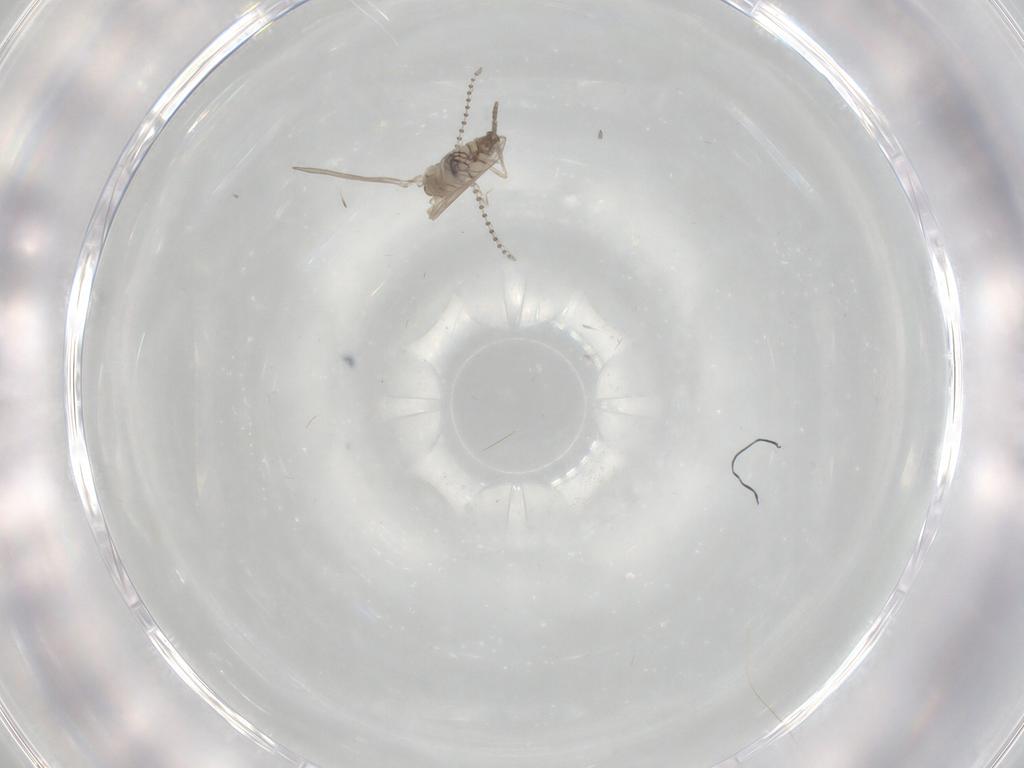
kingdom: Animalia
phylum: Arthropoda
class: Insecta
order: Diptera
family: Psychodidae
